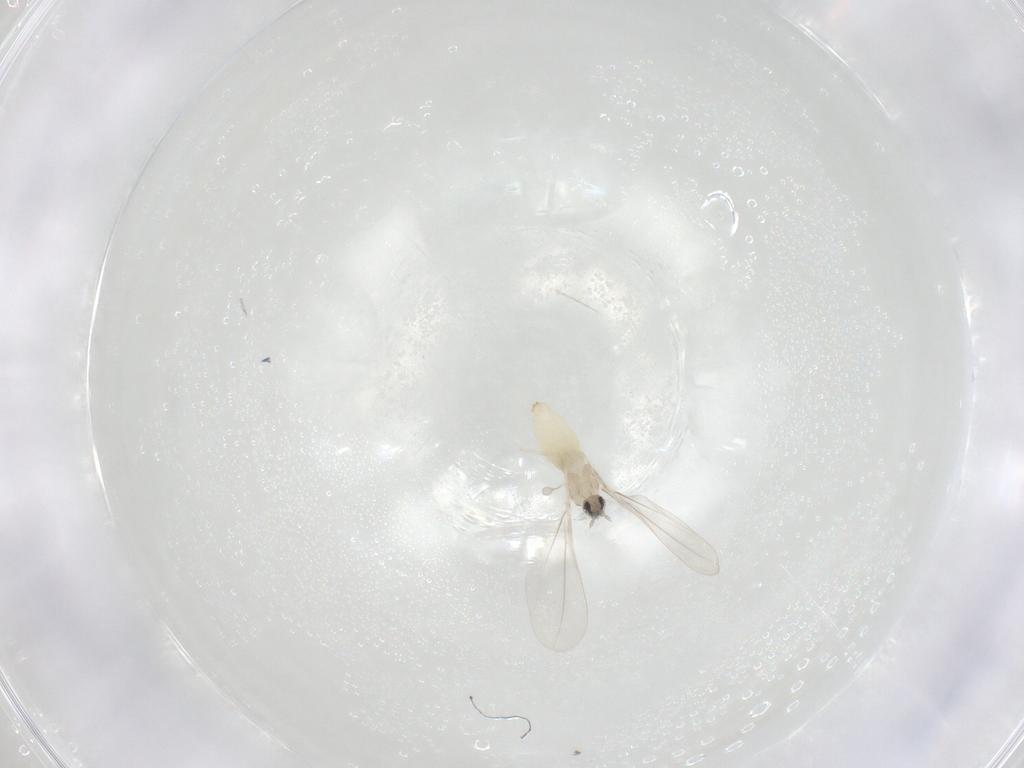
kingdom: Animalia
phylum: Arthropoda
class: Insecta
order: Diptera
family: Cecidomyiidae
